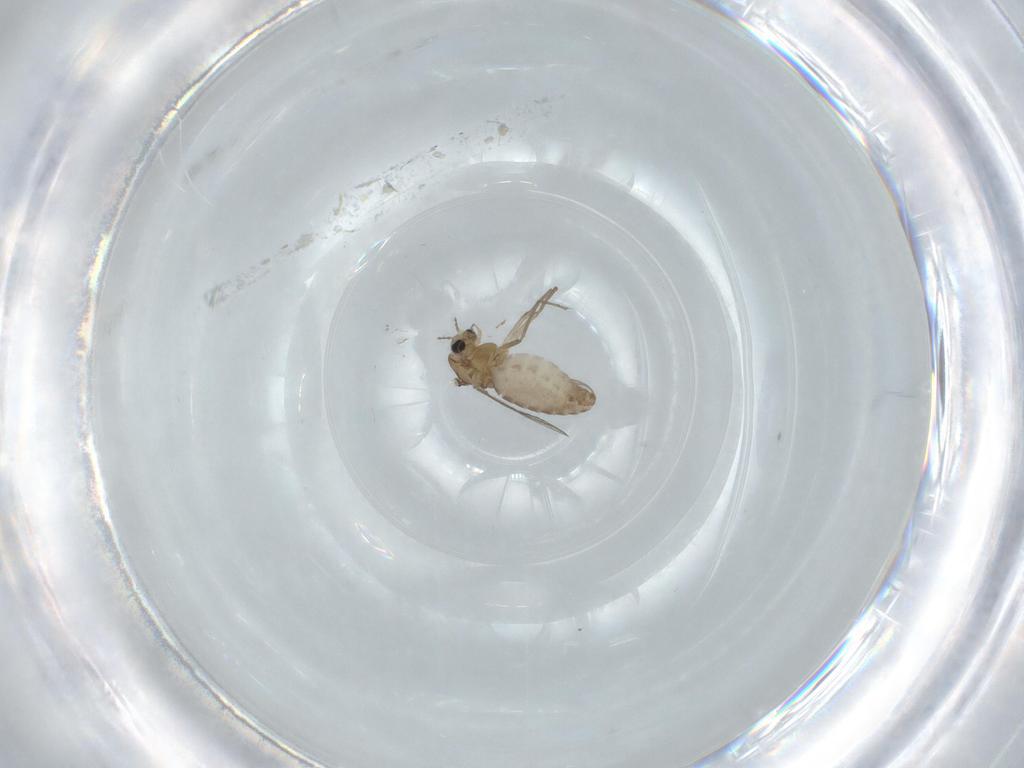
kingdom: Animalia
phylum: Arthropoda
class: Insecta
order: Diptera
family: Chironomidae
